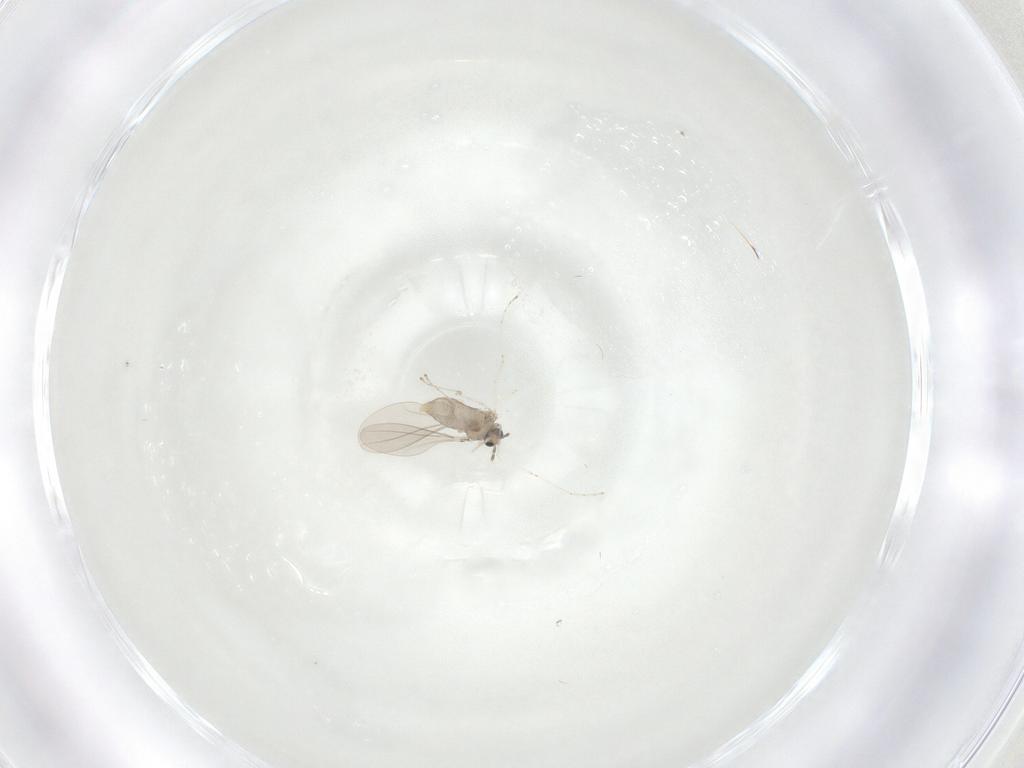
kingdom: Animalia
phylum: Arthropoda
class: Insecta
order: Diptera
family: Cecidomyiidae
